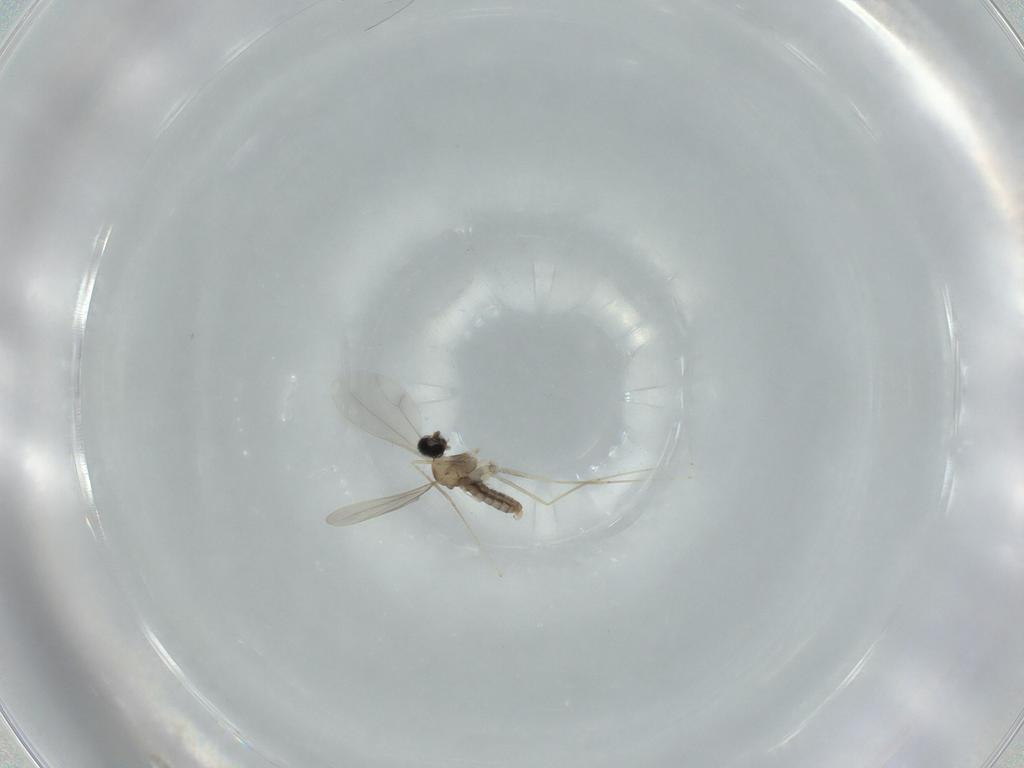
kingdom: Animalia
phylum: Arthropoda
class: Insecta
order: Diptera
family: Cecidomyiidae
